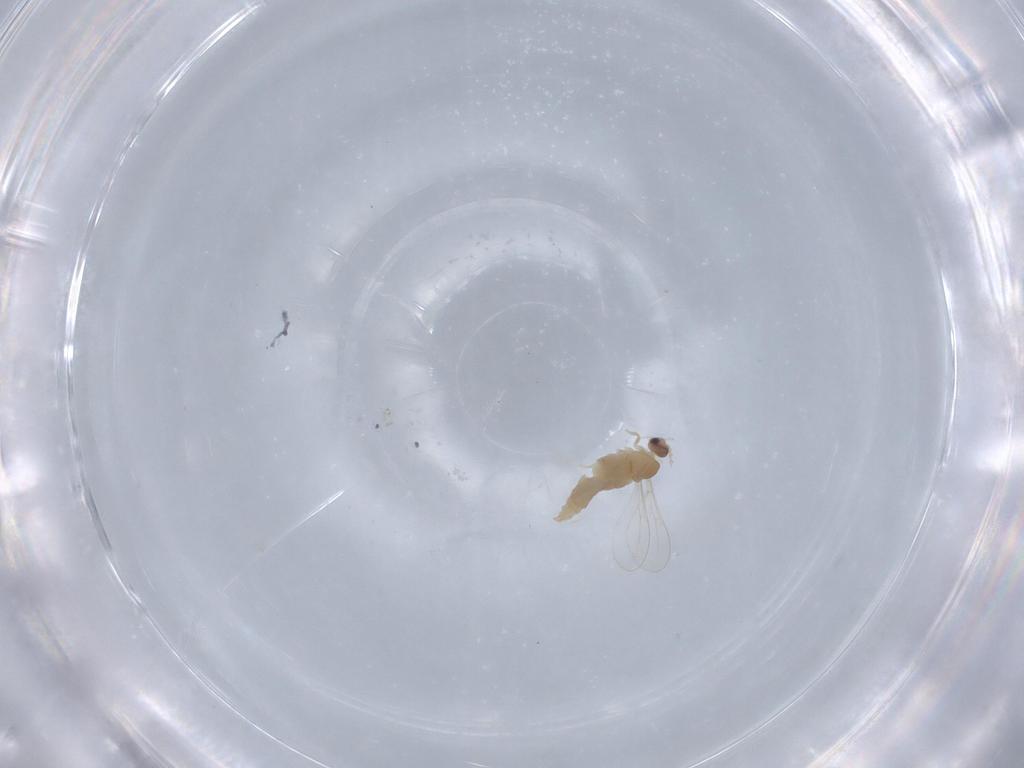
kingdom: Animalia
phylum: Arthropoda
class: Insecta
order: Diptera
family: Cecidomyiidae
